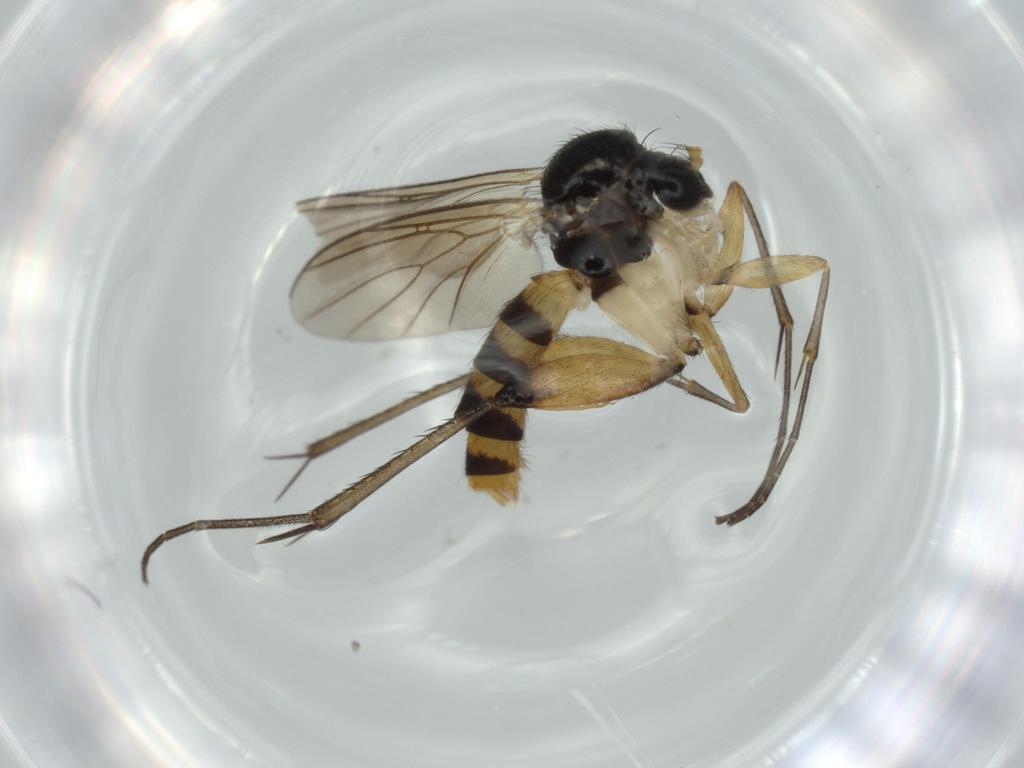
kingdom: Animalia
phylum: Arthropoda
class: Insecta
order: Diptera
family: Mycetophilidae
